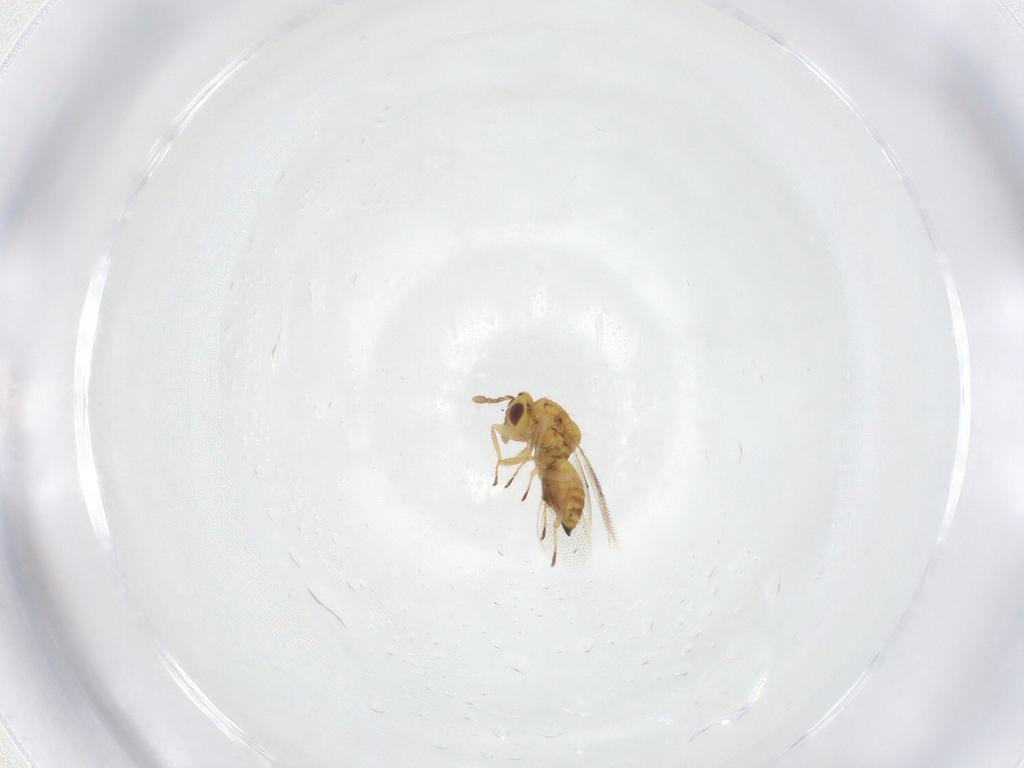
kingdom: Animalia
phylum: Arthropoda
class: Insecta
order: Hymenoptera
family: Eulophidae
